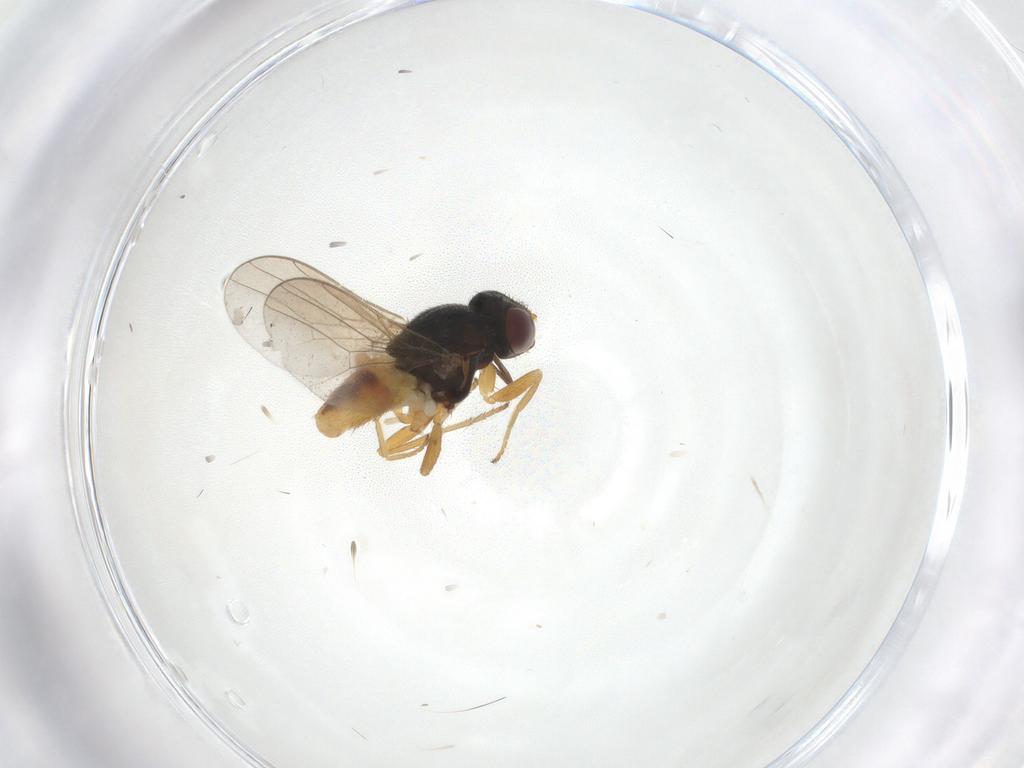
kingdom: Animalia
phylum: Arthropoda
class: Insecta
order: Diptera
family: Chloropidae
